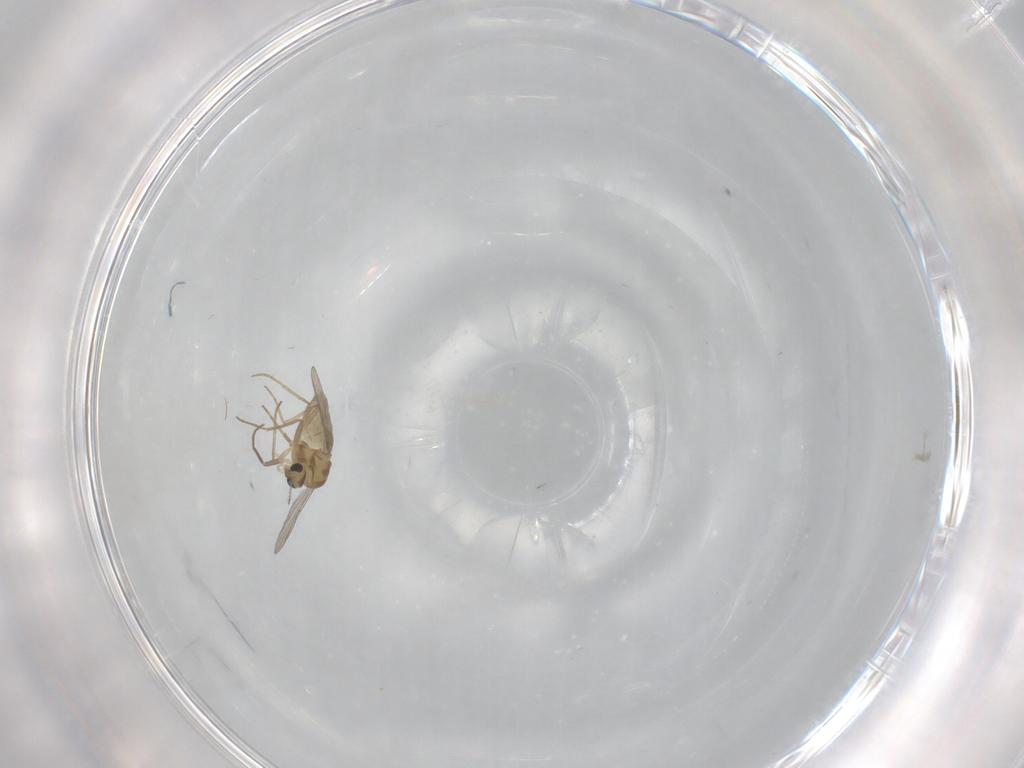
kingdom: Animalia
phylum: Arthropoda
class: Insecta
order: Diptera
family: Chironomidae
